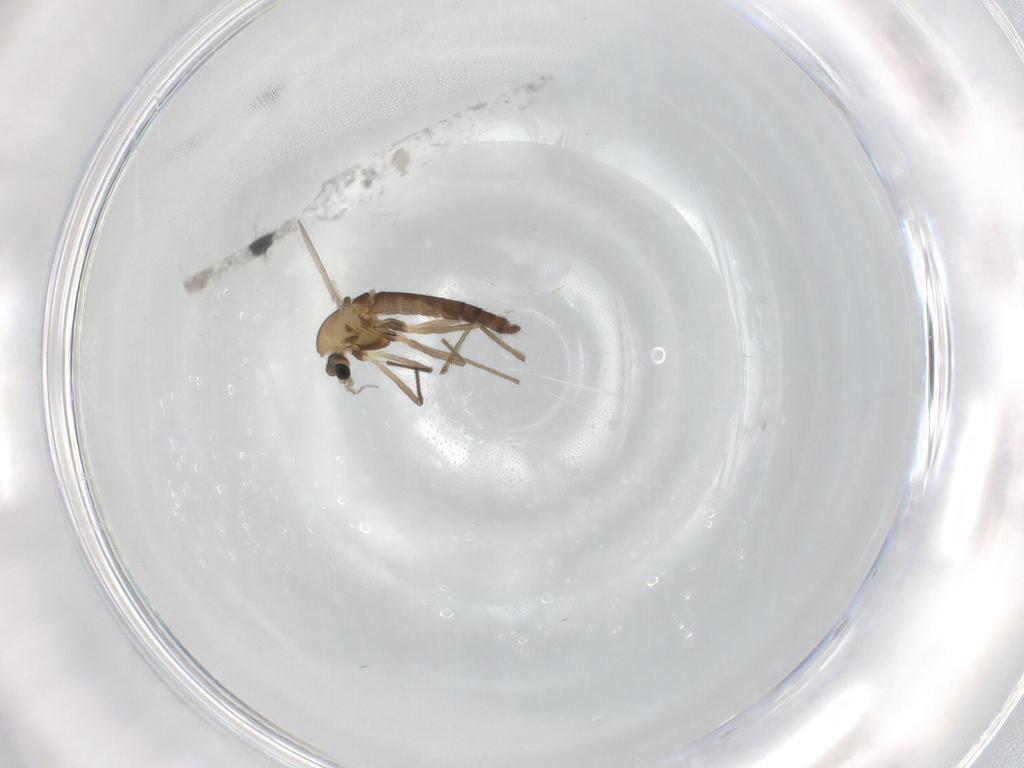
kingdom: Animalia
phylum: Arthropoda
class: Insecta
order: Diptera
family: Chironomidae
